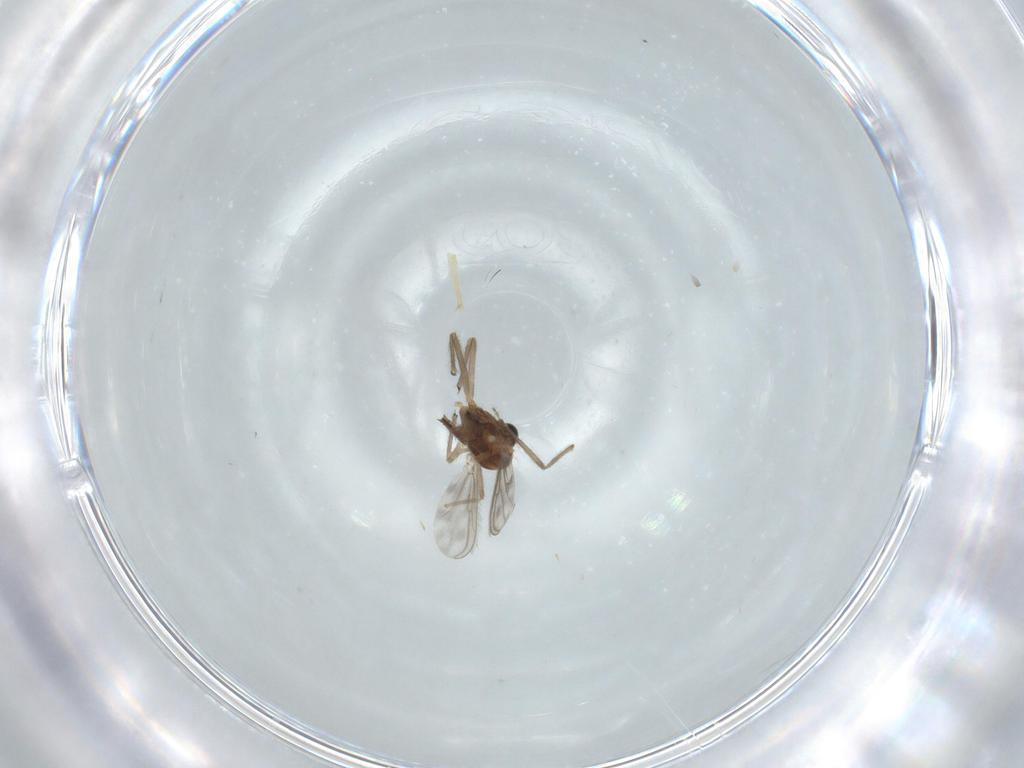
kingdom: Animalia
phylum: Arthropoda
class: Insecta
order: Diptera
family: Chironomidae
